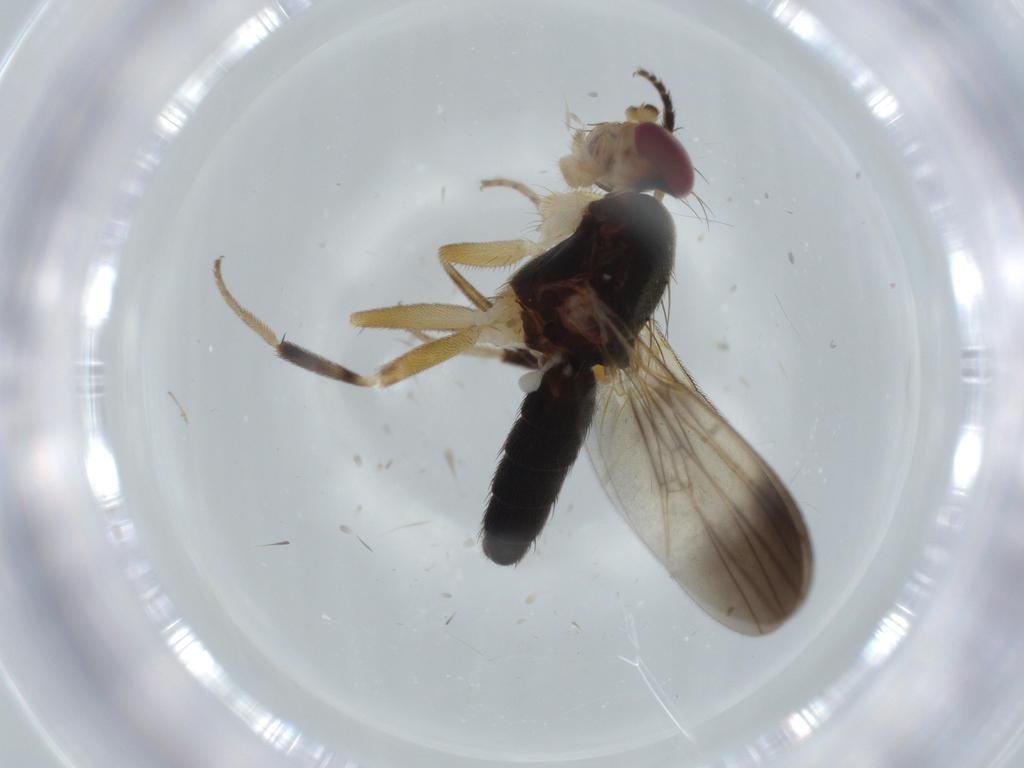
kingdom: Animalia
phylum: Arthropoda
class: Insecta
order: Diptera
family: Clusiidae
